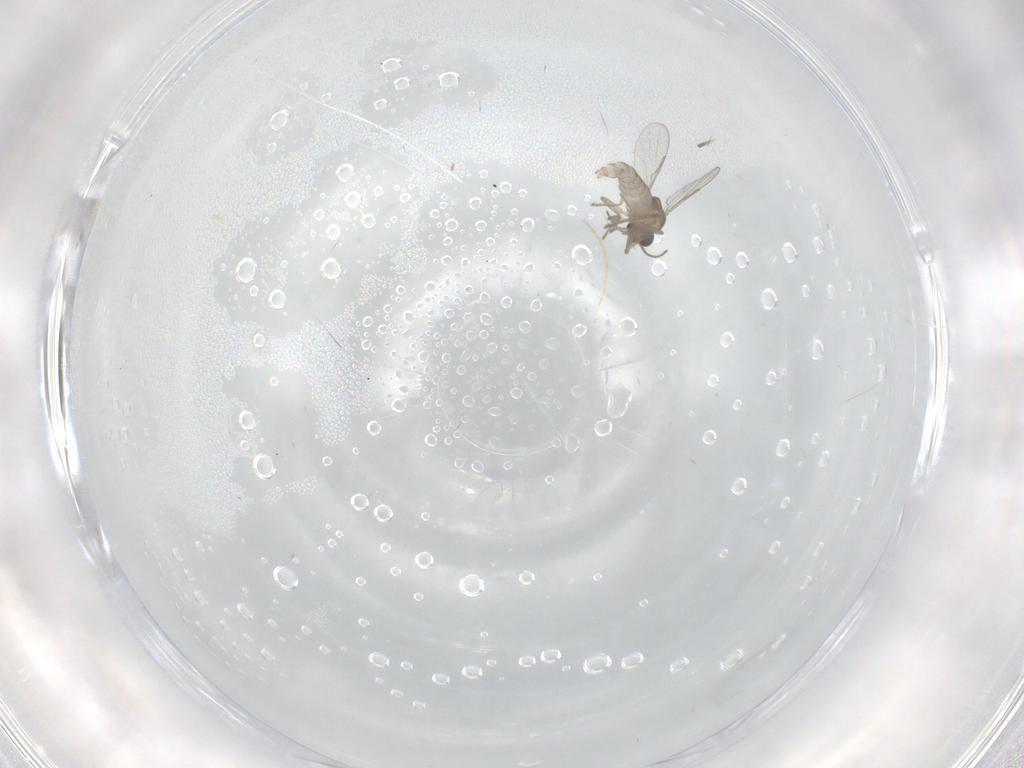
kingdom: Animalia
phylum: Arthropoda
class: Insecta
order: Diptera
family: Ceratopogonidae
